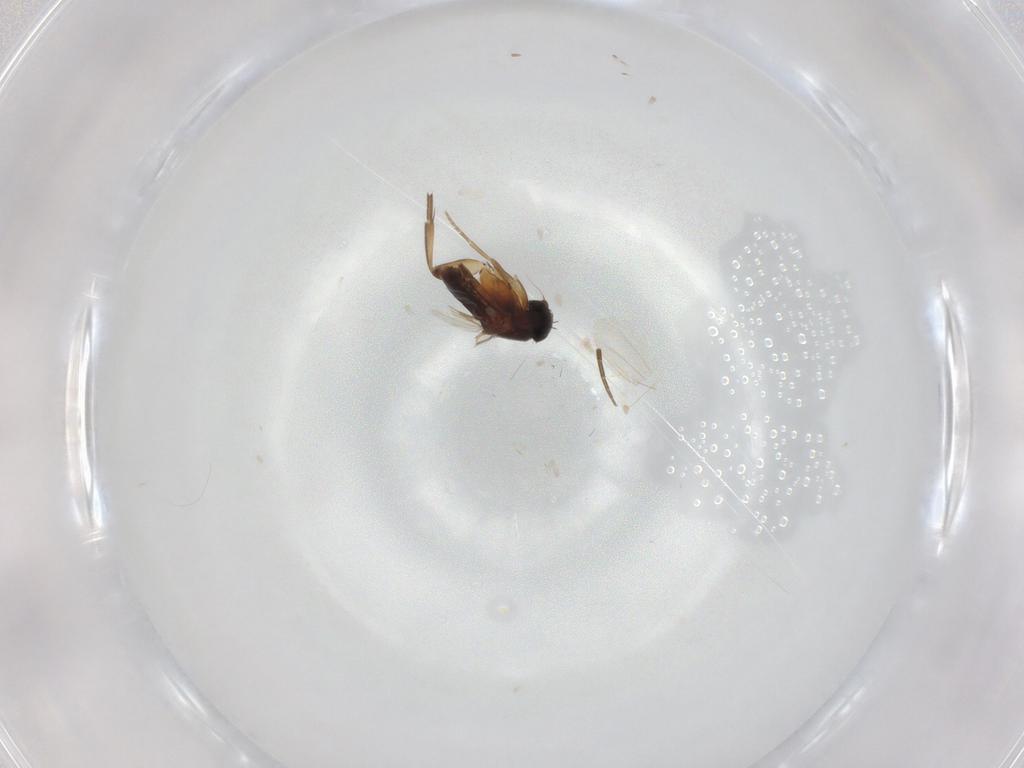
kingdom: Animalia
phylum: Arthropoda
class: Insecta
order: Diptera
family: Phoridae
